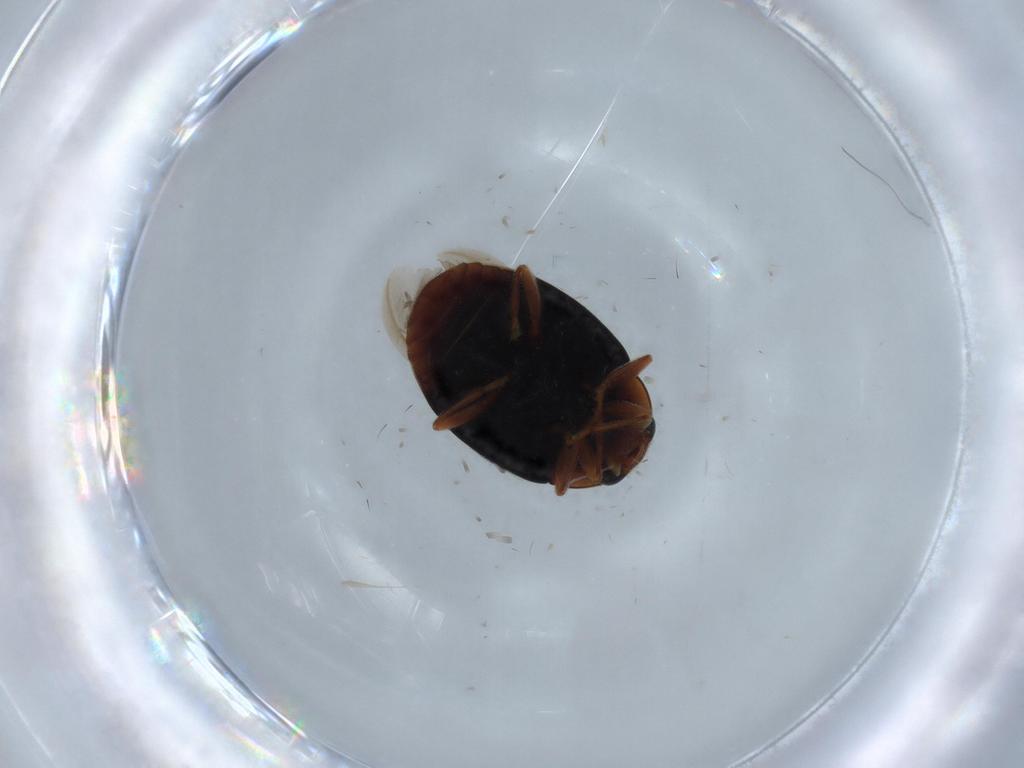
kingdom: Animalia
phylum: Arthropoda
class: Insecta
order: Coleoptera
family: Coccinellidae
